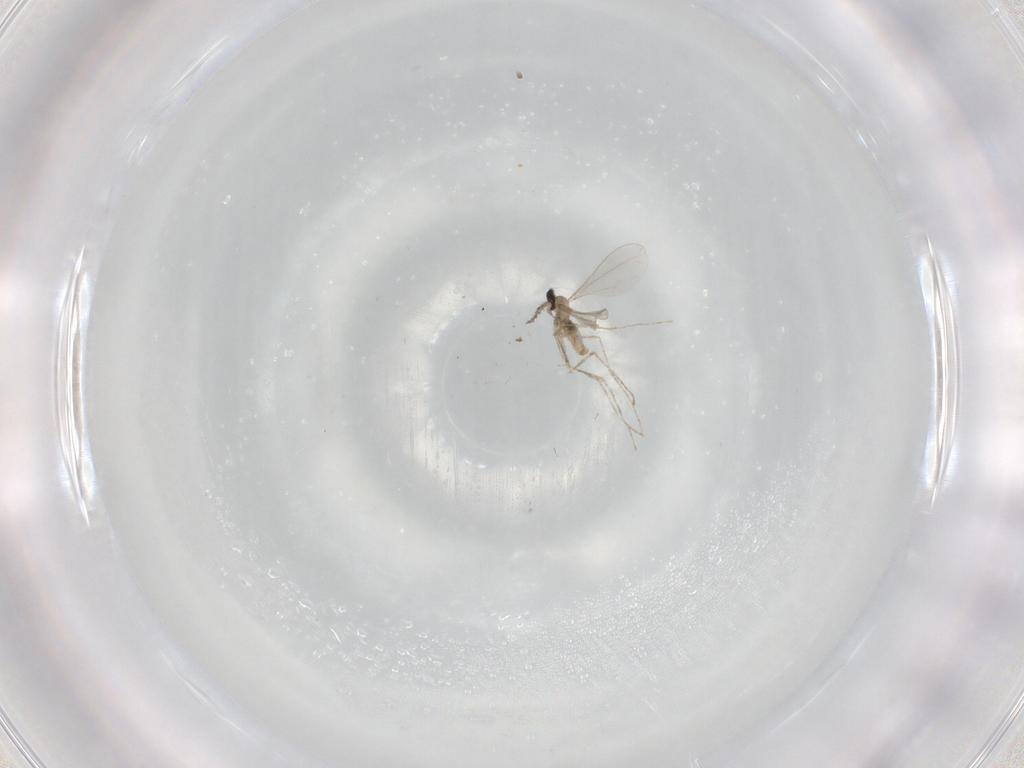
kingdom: Animalia
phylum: Arthropoda
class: Insecta
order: Diptera
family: Cecidomyiidae
